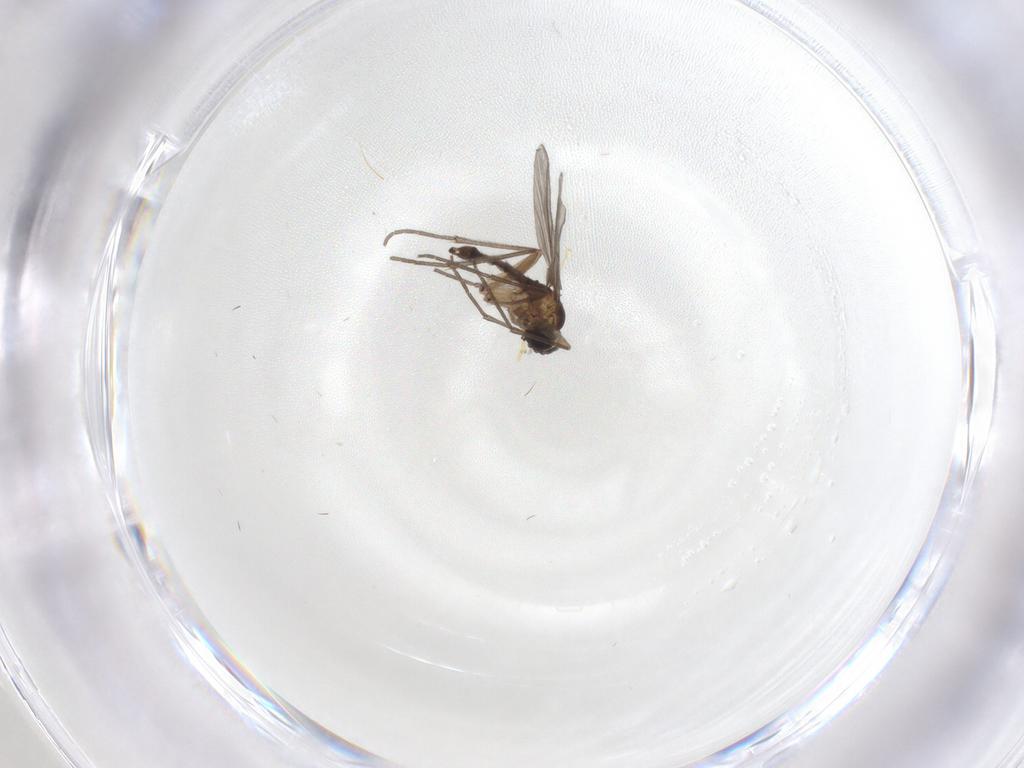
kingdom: Animalia
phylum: Arthropoda
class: Insecta
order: Diptera
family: Sciaridae
